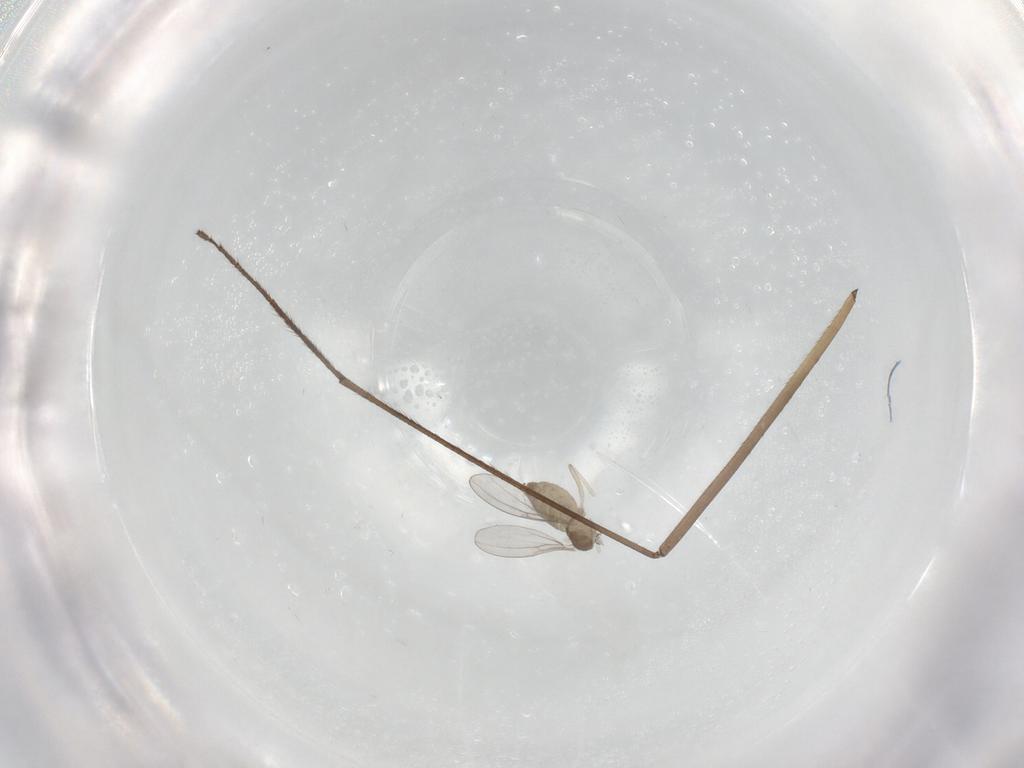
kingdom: Animalia
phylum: Arthropoda
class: Insecta
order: Diptera
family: Cecidomyiidae
